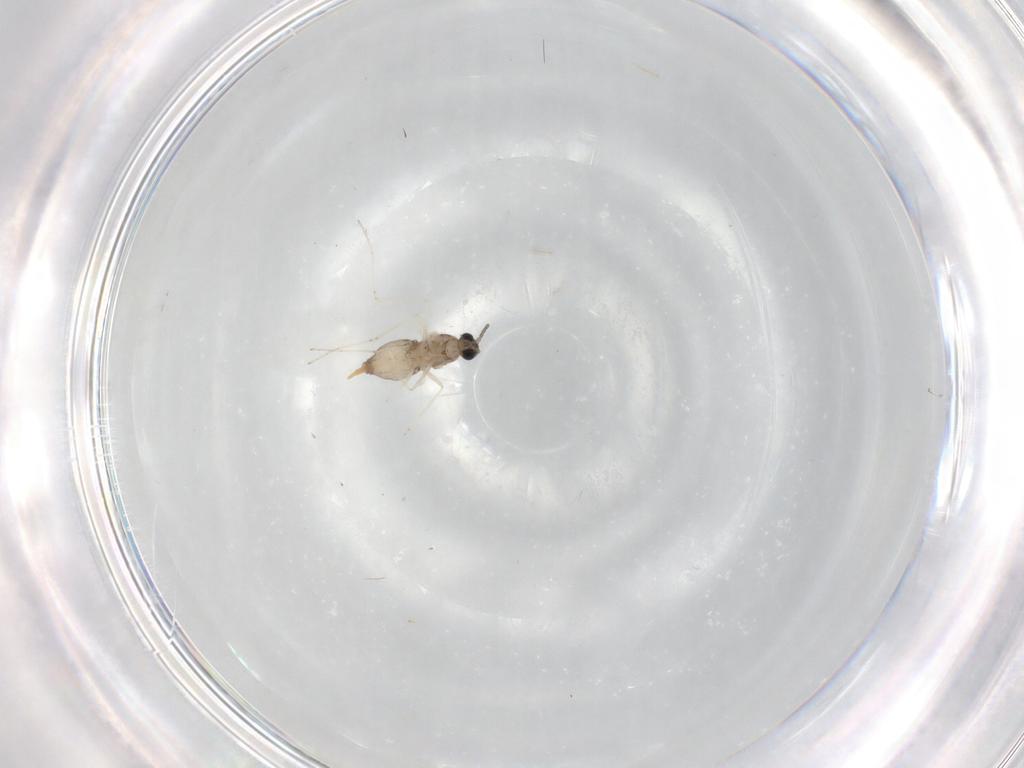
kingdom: Animalia
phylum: Arthropoda
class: Insecta
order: Diptera
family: Cecidomyiidae
